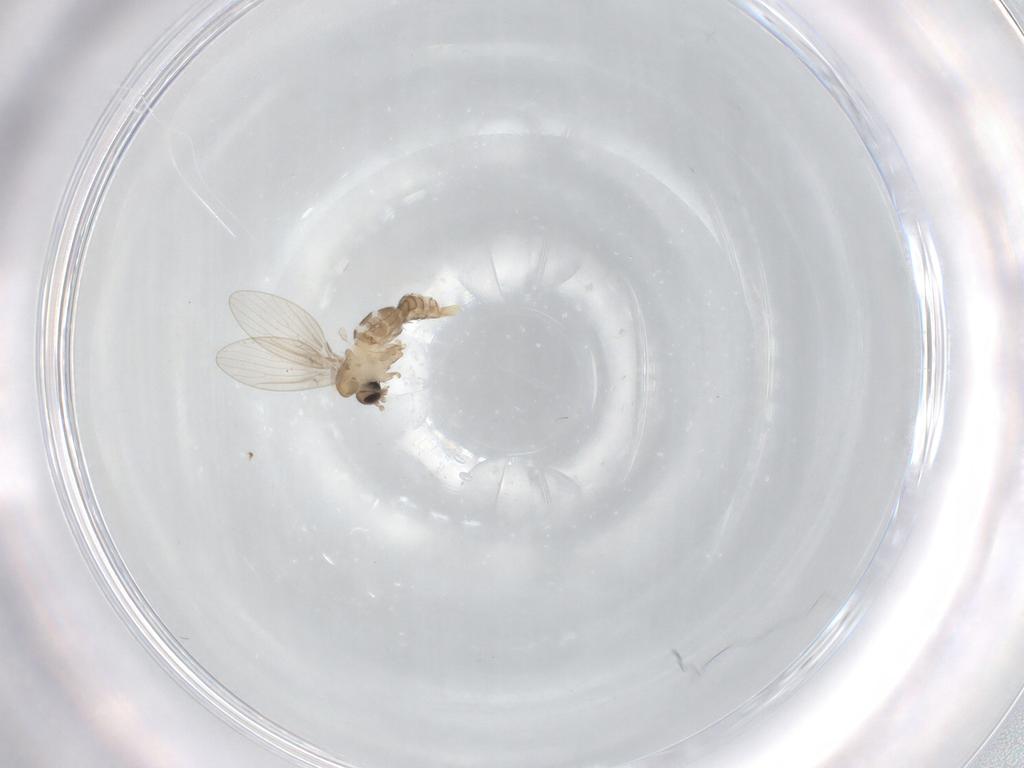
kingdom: Animalia
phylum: Arthropoda
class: Insecta
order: Diptera
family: Psychodidae
